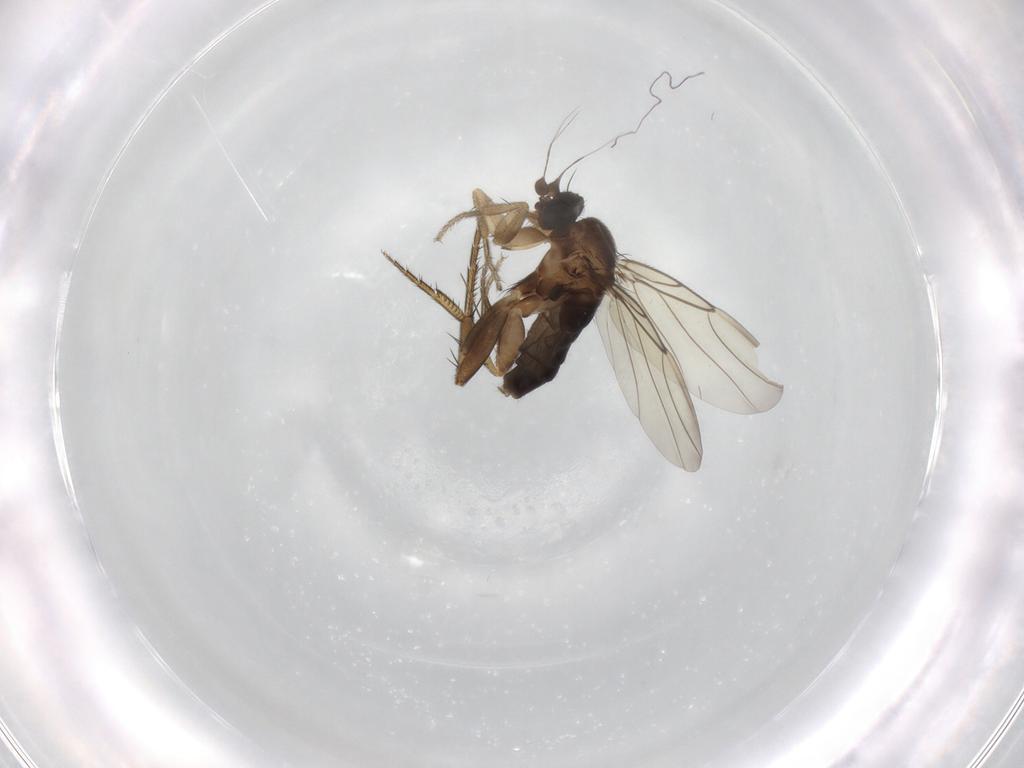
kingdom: Animalia
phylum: Arthropoda
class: Insecta
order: Diptera
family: Phoridae
